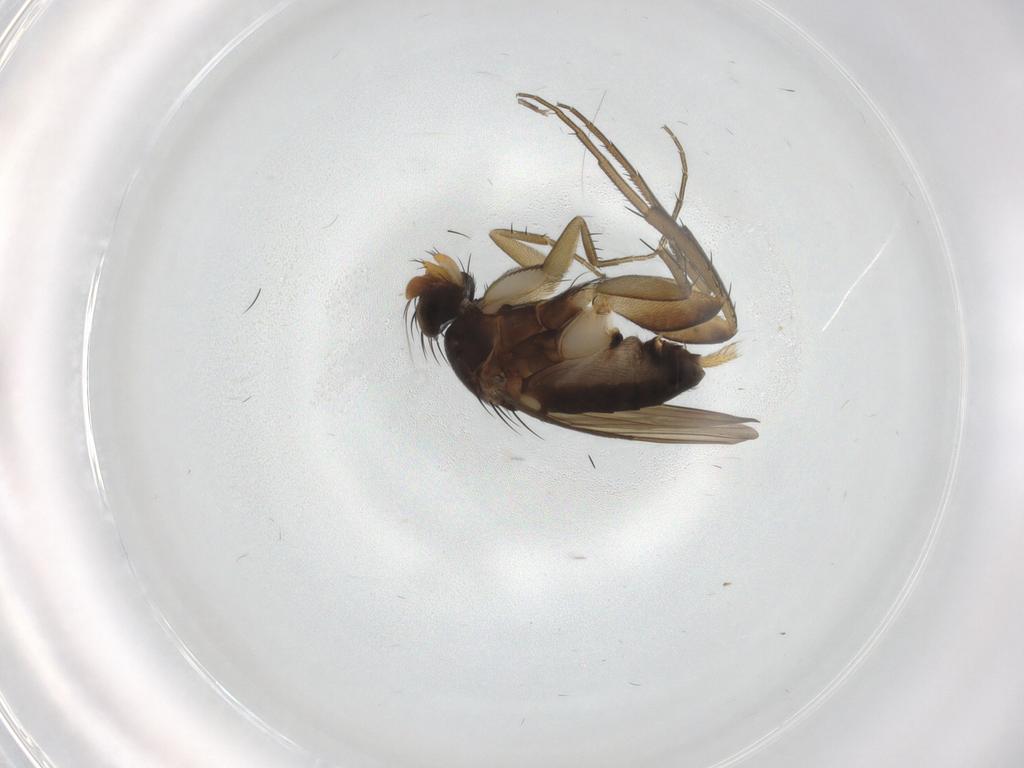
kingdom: Animalia
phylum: Arthropoda
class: Insecta
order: Diptera
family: Phoridae
